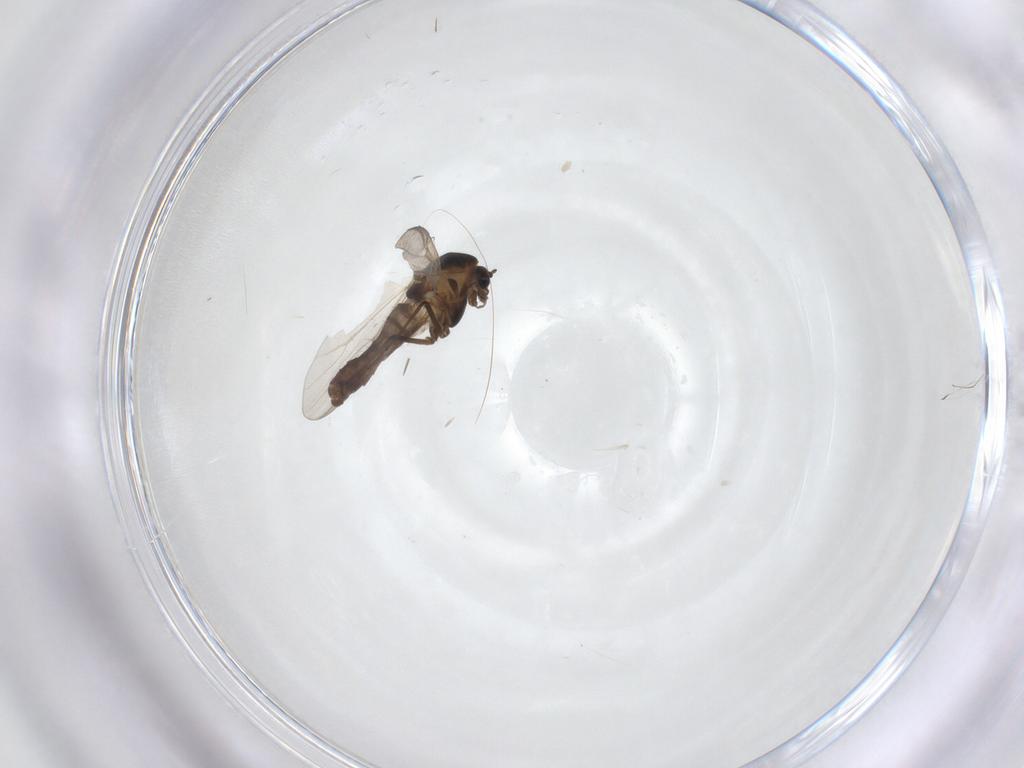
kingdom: Animalia
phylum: Arthropoda
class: Insecta
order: Diptera
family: Chironomidae
